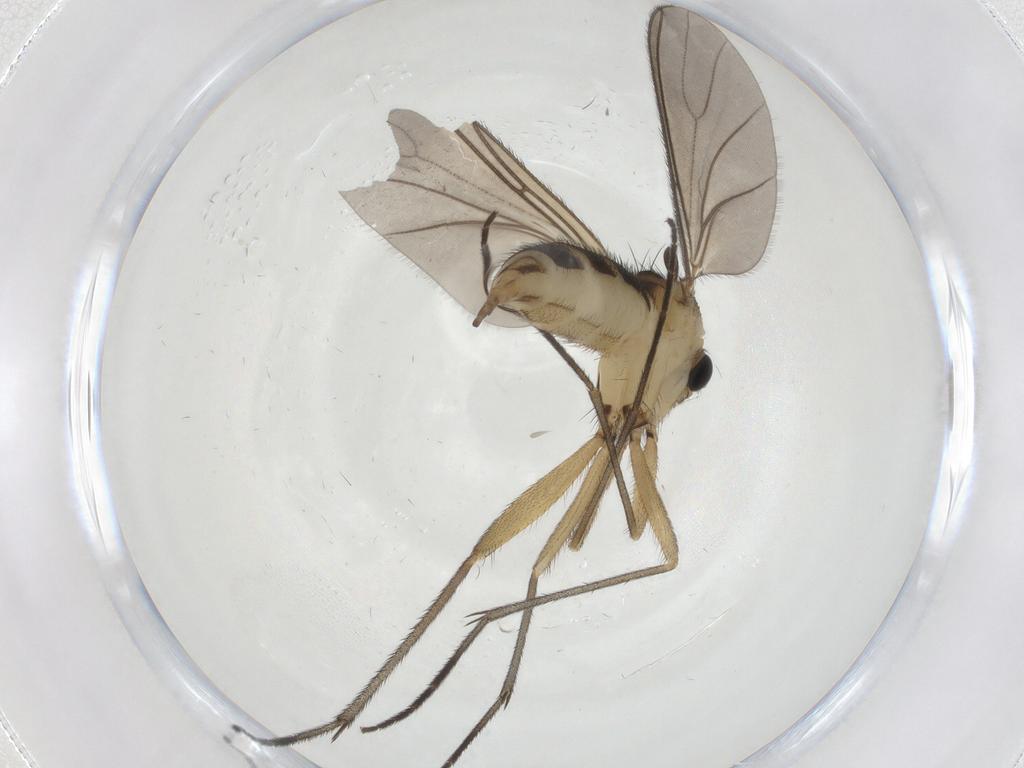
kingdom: Animalia
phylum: Arthropoda
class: Insecta
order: Diptera
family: Sciaridae
